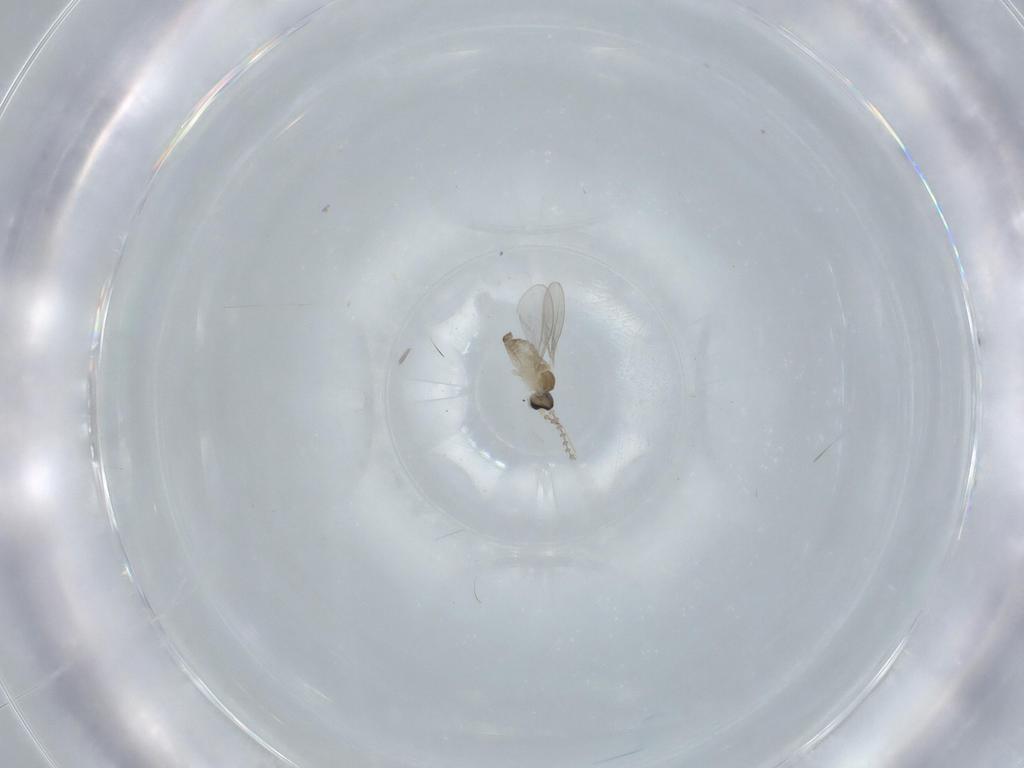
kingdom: Animalia
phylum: Arthropoda
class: Insecta
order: Diptera
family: Cecidomyiidae
